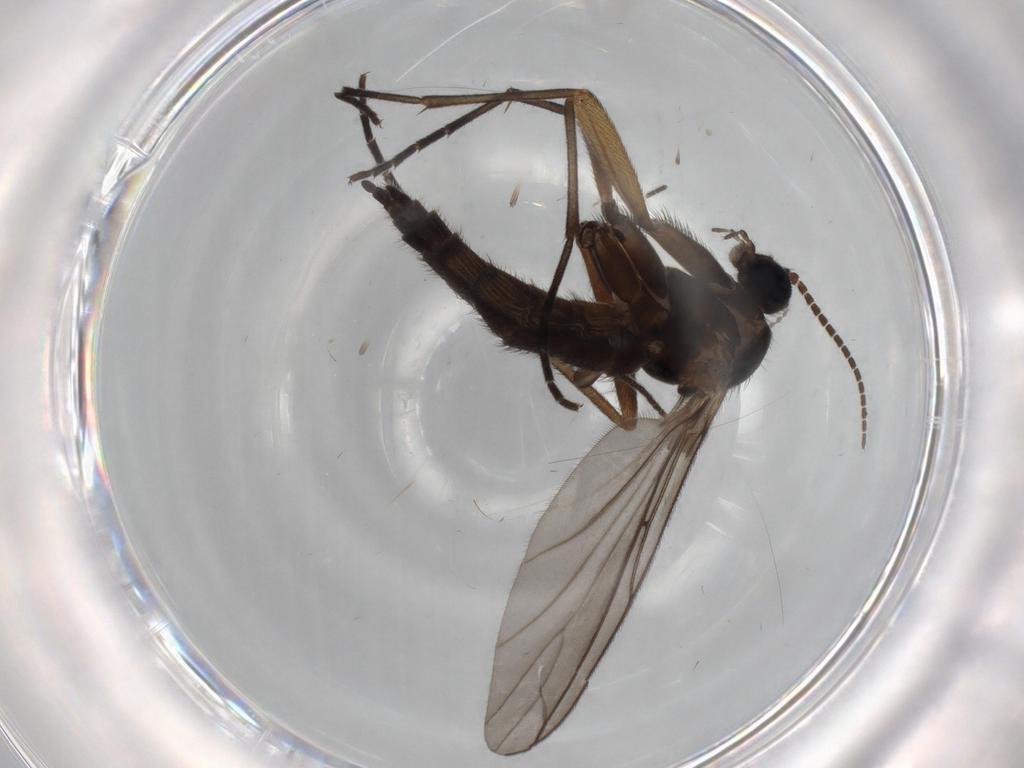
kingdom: Animalia
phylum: Arthropoda
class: Insecta
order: Diptera
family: Sciaridae
